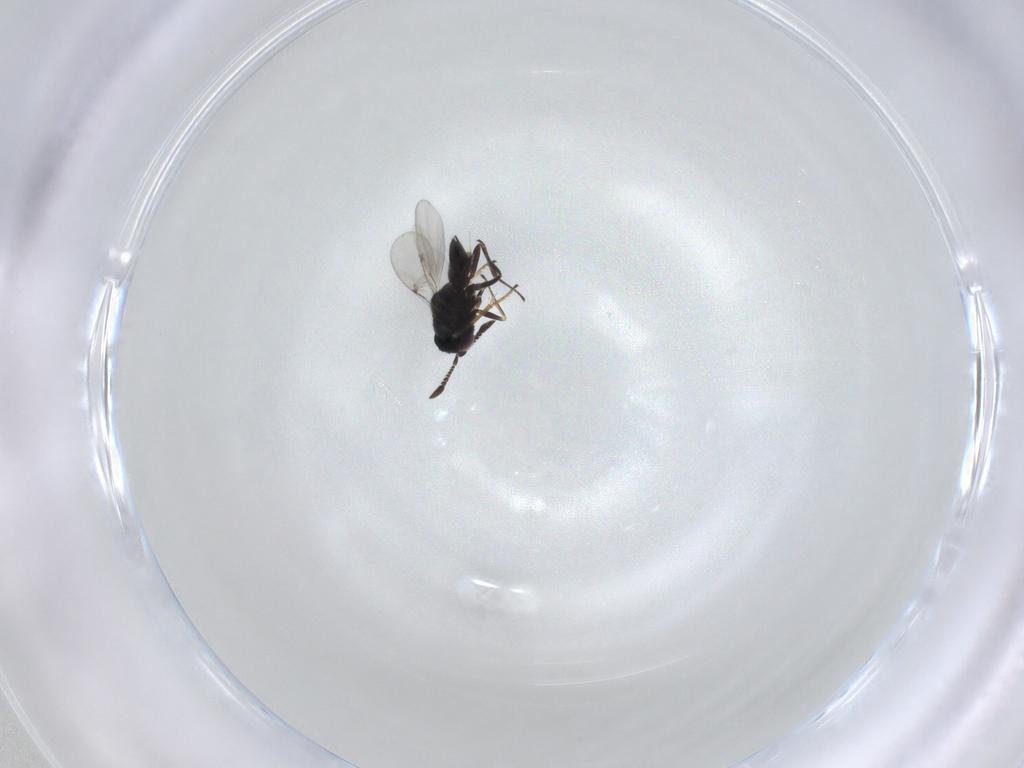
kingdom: Animalia
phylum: Arthropoda
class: Insecta
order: Hymenoptera
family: Encyrtidae
